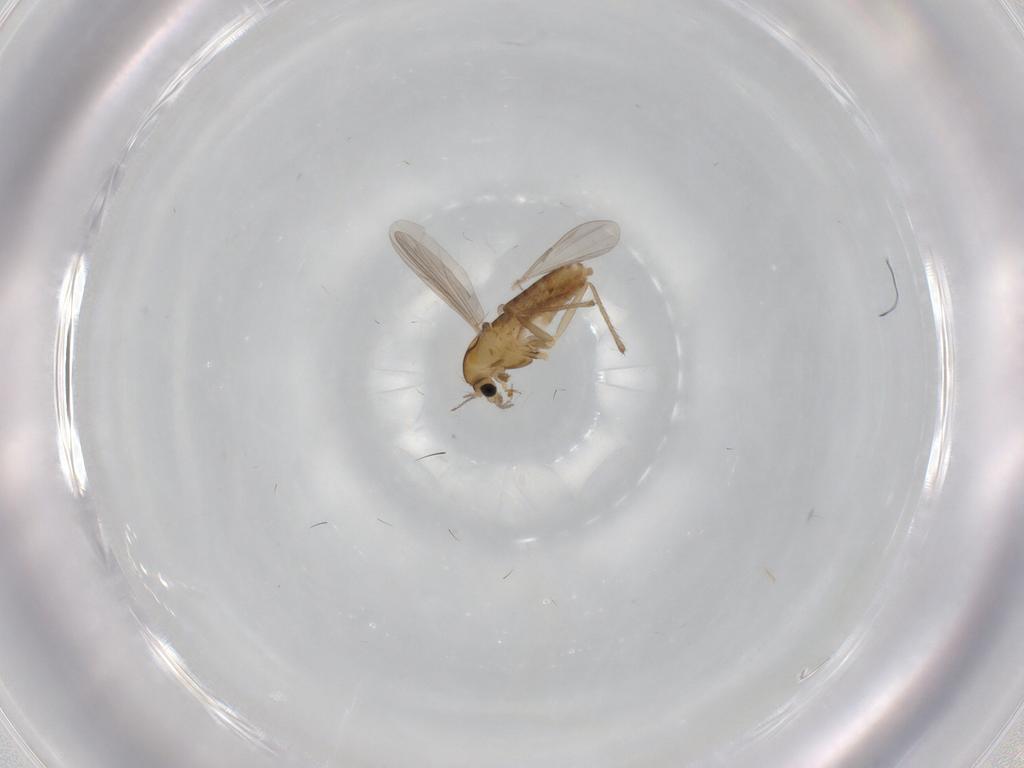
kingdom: Animalia
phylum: Arthropoda
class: Insecta
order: Diptera
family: Chironomidae
